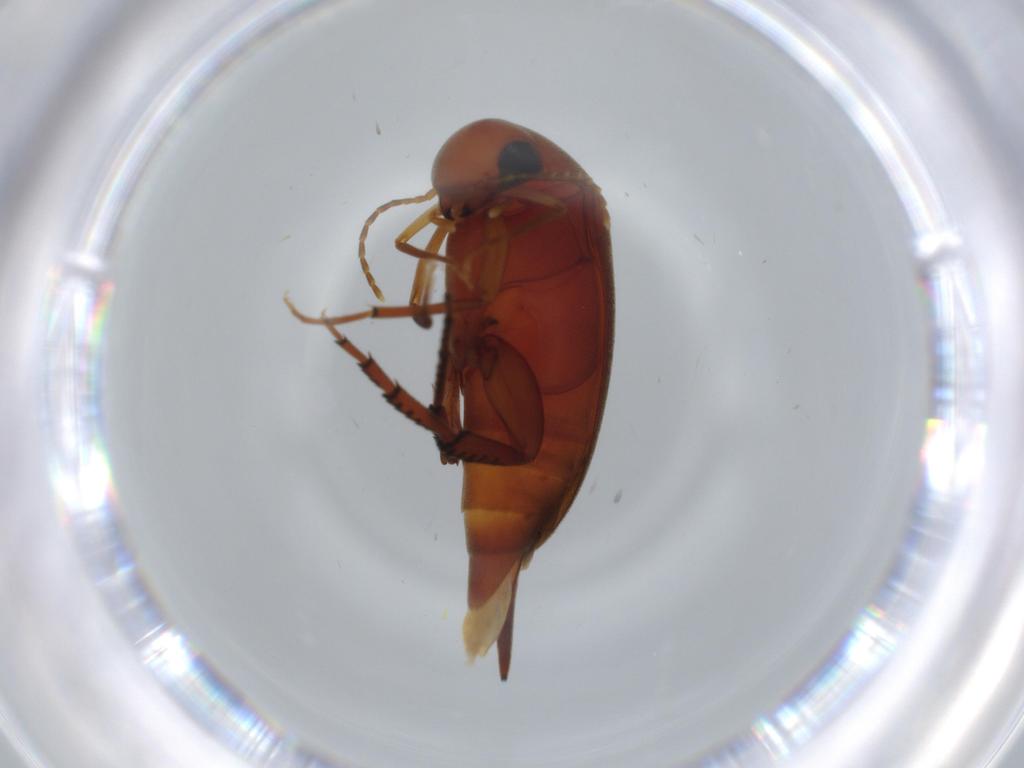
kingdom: Animalia
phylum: Arthropoda
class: Insecta
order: Coleoptera
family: Mordellidae
